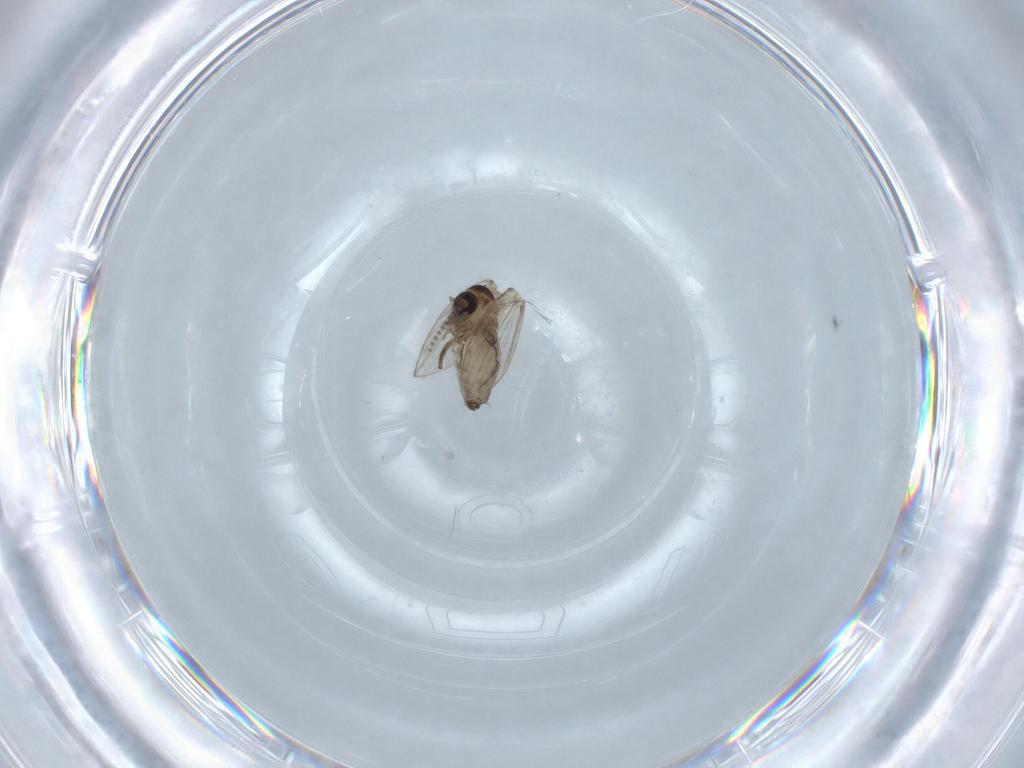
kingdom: Animalia
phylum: Arthropoda
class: Insecta
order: Diptera
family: Psychodidae
